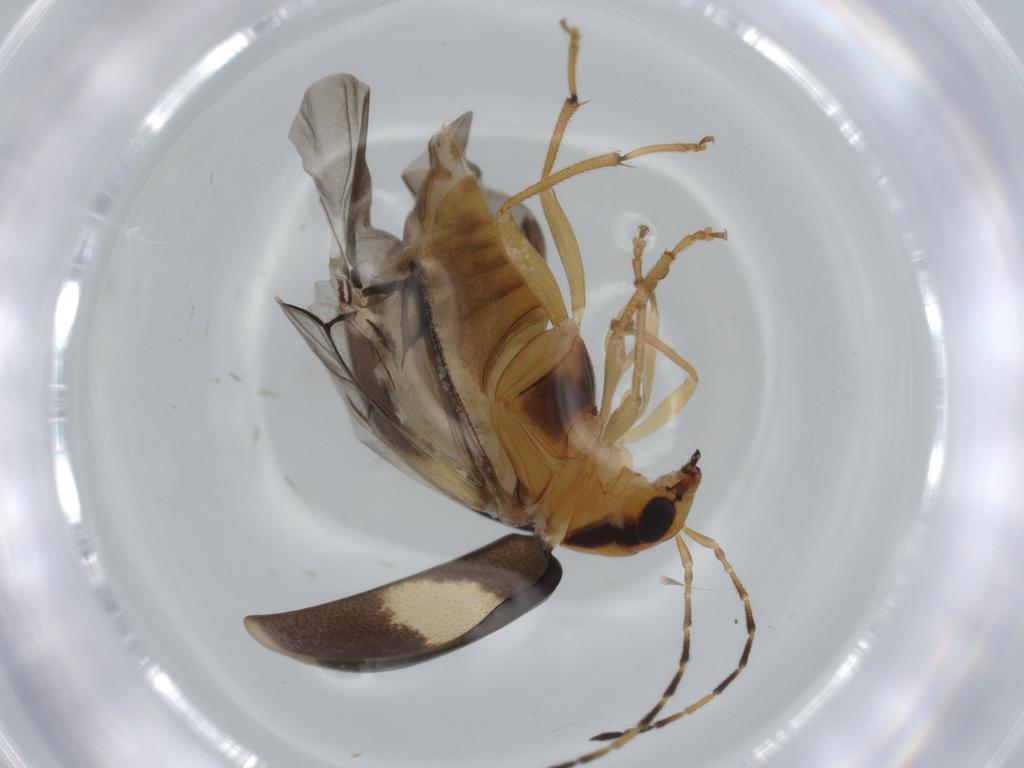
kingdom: Animalia
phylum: Arthropoda
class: Insecta
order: Coleoptera
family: Chrysomelidae
